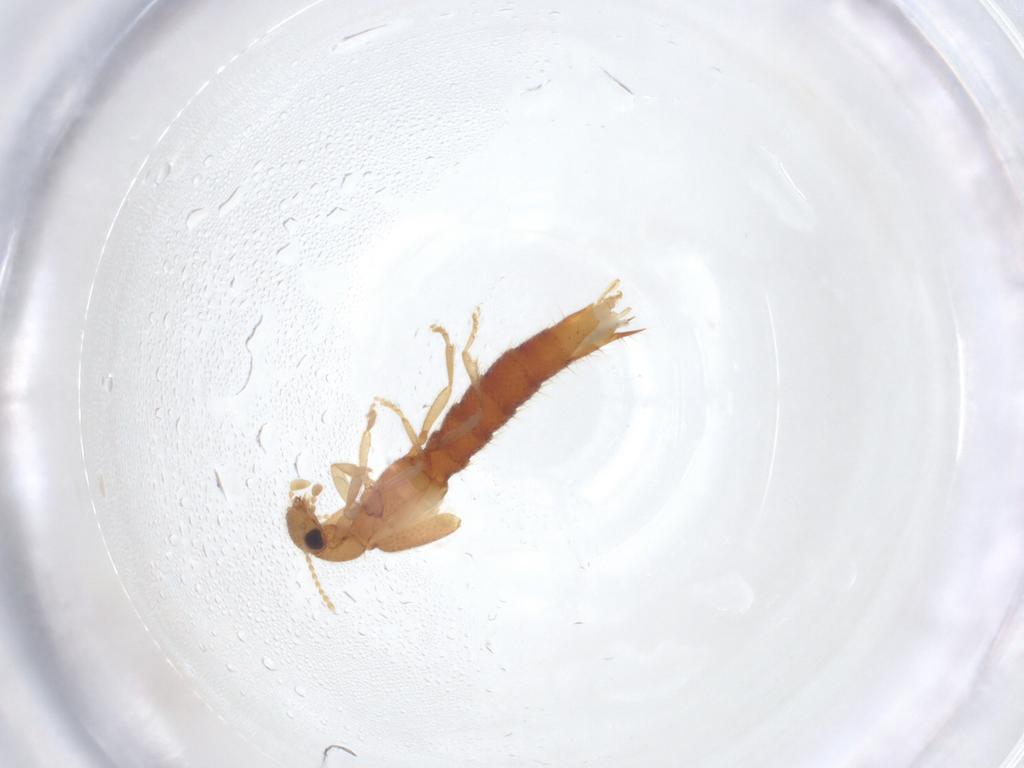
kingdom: Animalia
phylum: Arthropoda
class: Insecta
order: Coleoptera
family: Staphylinidae
